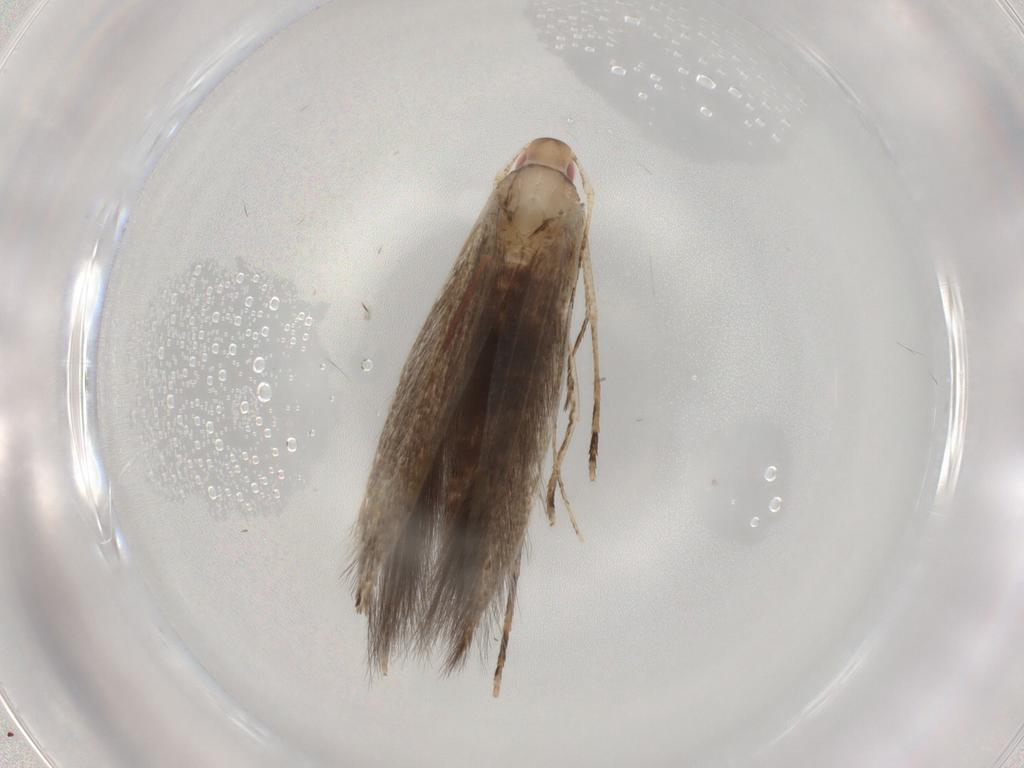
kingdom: Animalia
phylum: Arthropoda
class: Insecta
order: Lepidoptera
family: Cosmopterigidae
